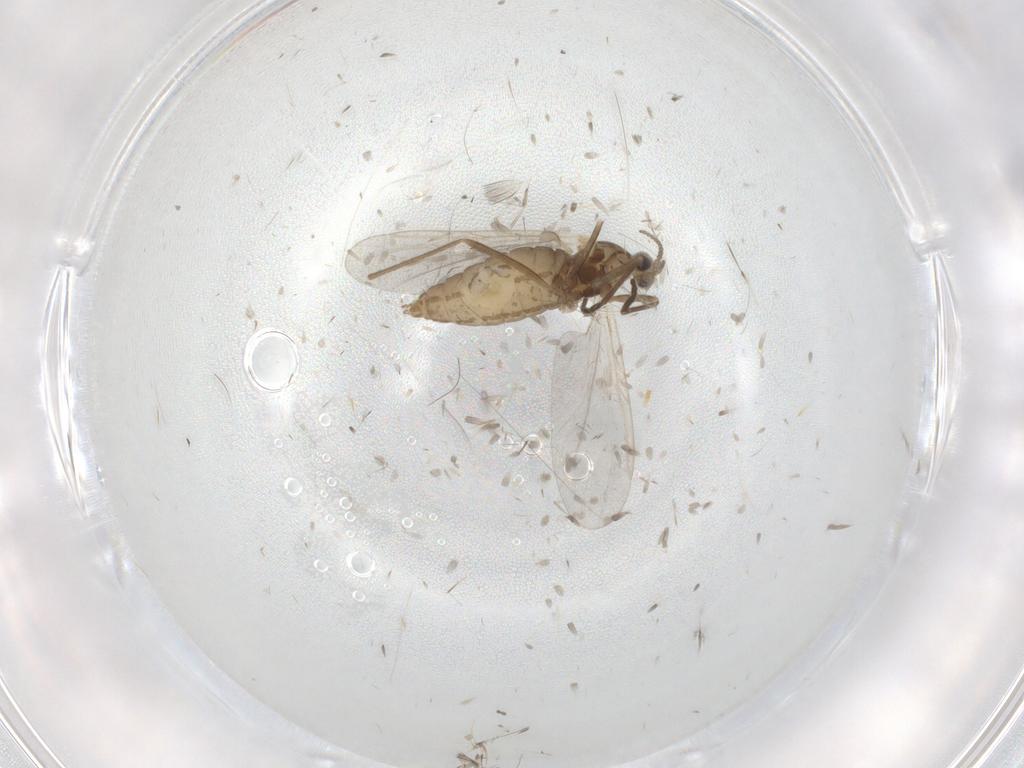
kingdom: Animalia
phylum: Arthropoda
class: Insecta
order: Diptera
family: Cecidomyiidae
